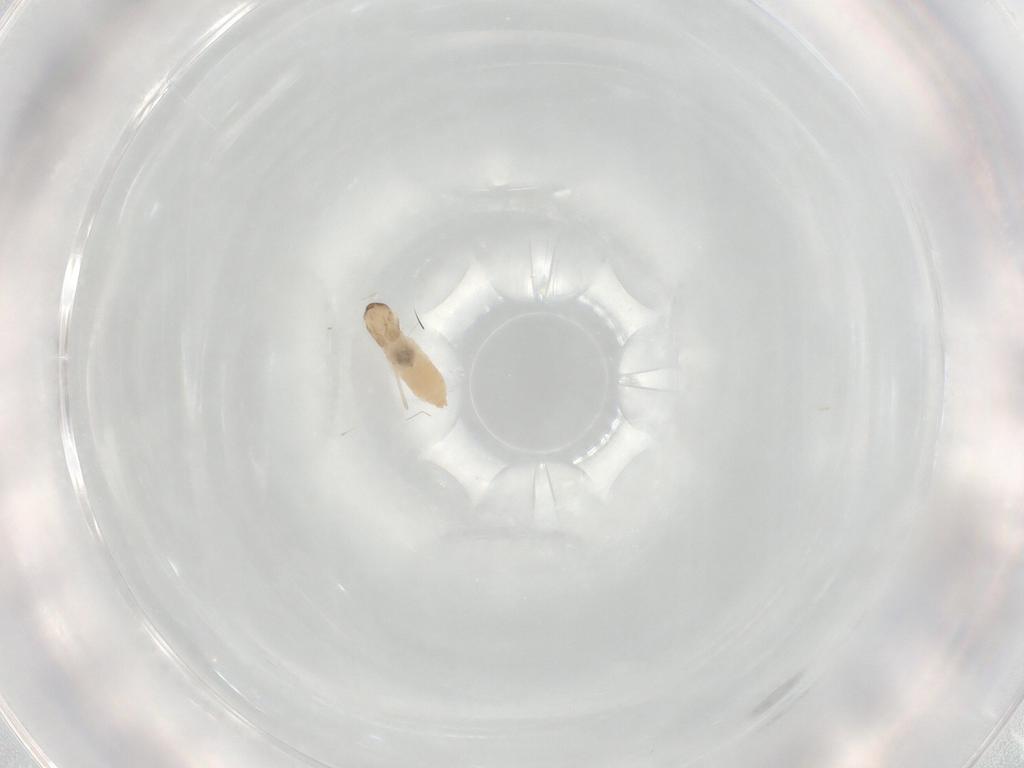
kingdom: Animalia
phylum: Arthropoda
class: Insecta
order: Diptera
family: Cecidomyiidae
